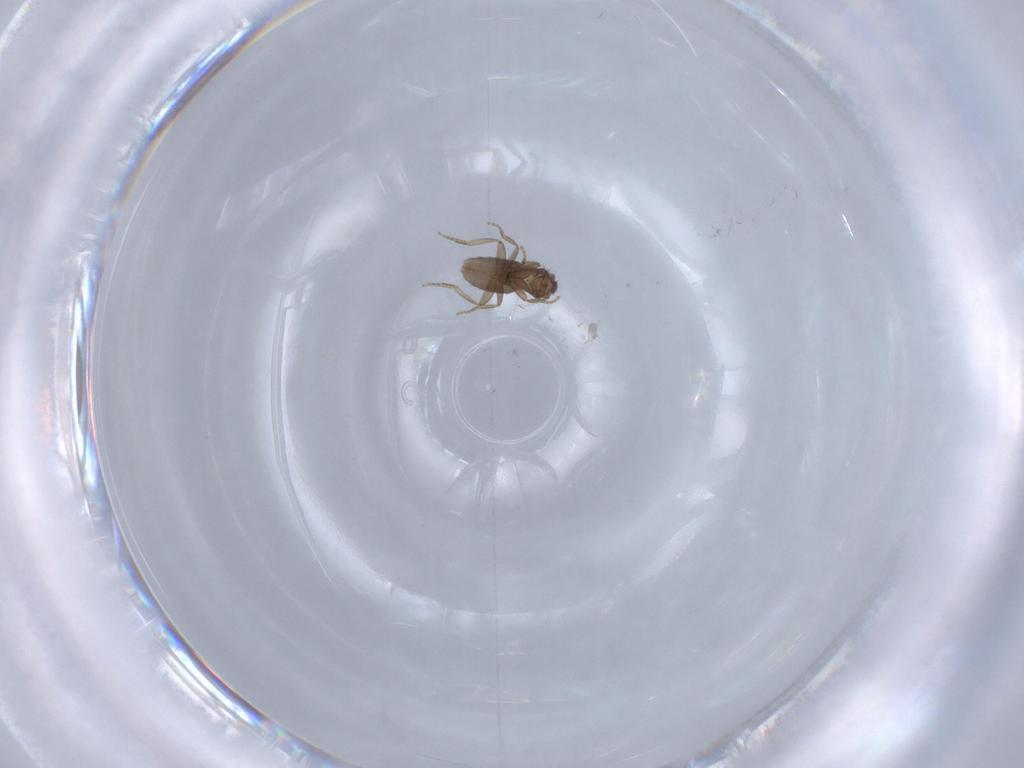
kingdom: Animalia
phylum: Arthropoda
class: Insecta
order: Diptera
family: Phoridae
